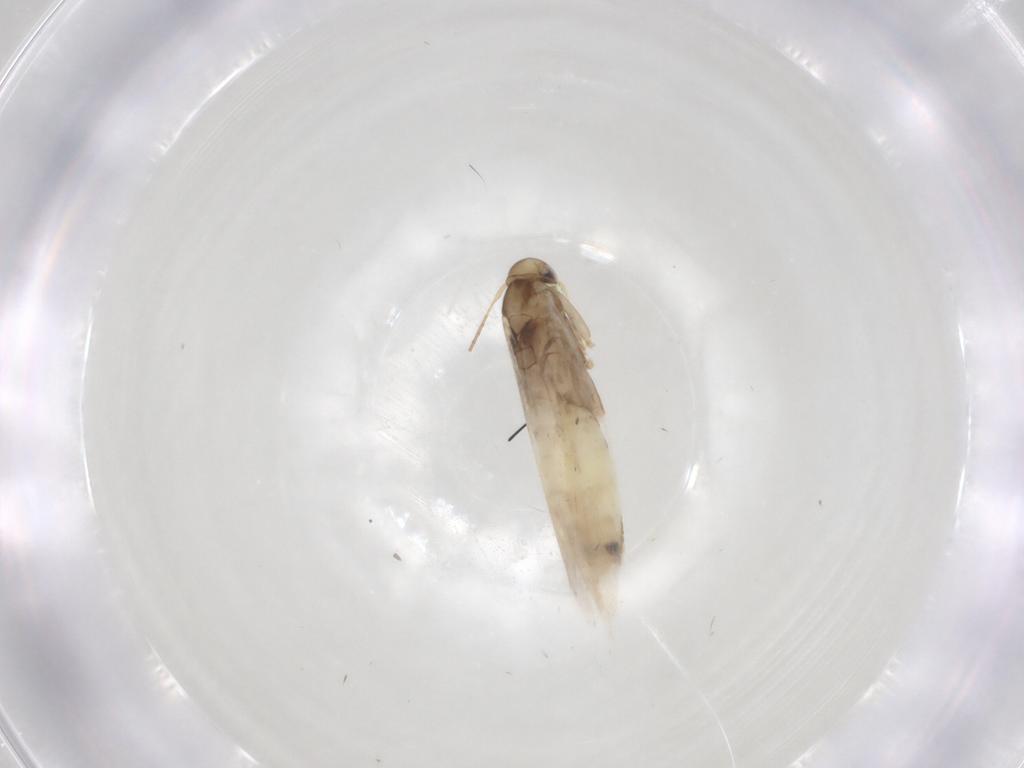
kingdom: Animalia
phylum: Arthropoda
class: Insecta
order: Lepidoptera
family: Gracillariidae
